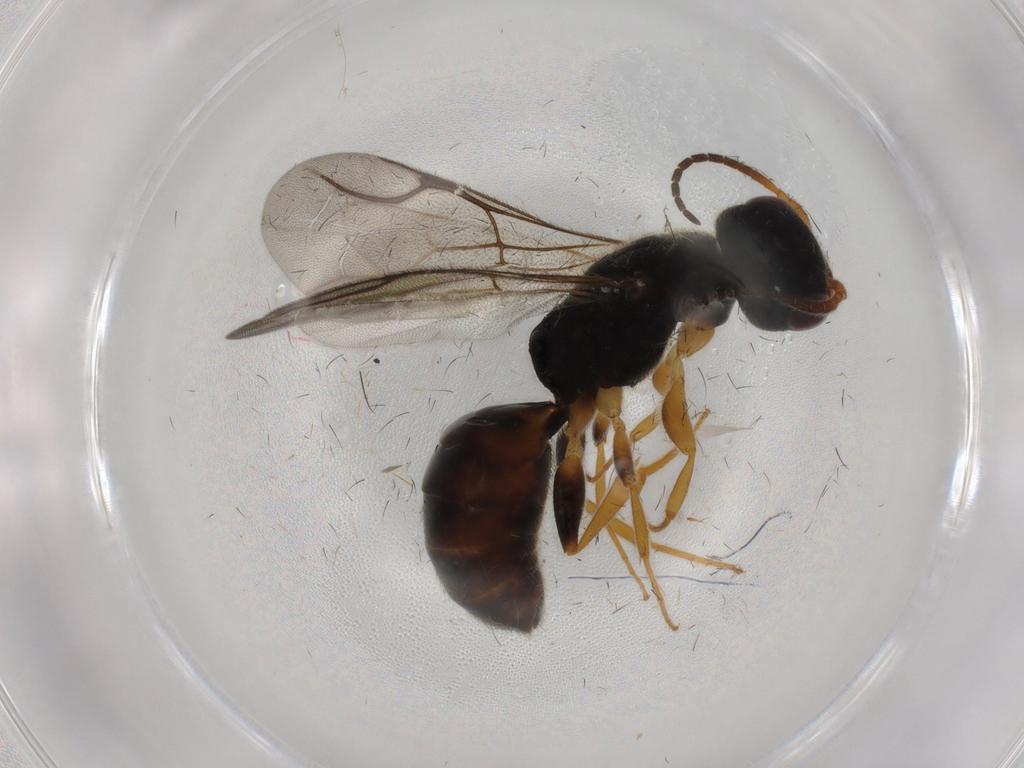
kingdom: Animalia
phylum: Arthropoda
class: Insecta
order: Hymenoptera
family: Bethylidae
